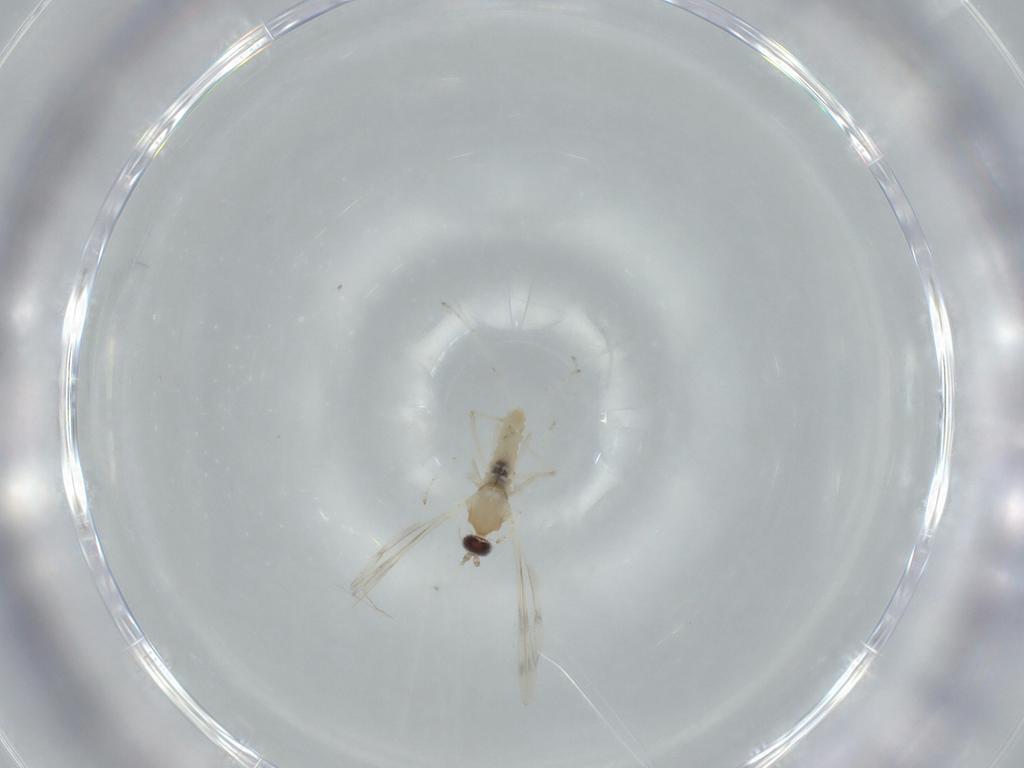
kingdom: Animalia
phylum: Arthropoda
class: Insecta
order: Diptera
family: Cecidomyiidae
